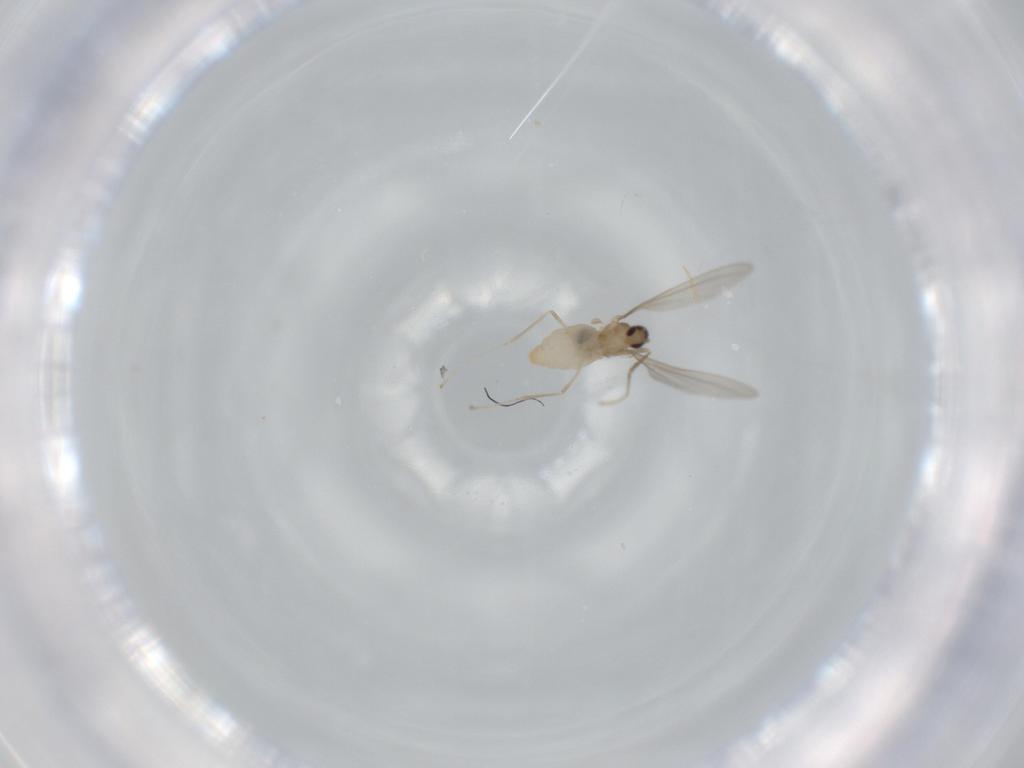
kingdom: Animalia
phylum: Arthropoda
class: Insecta
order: Diptera
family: Cecidomyiidae
